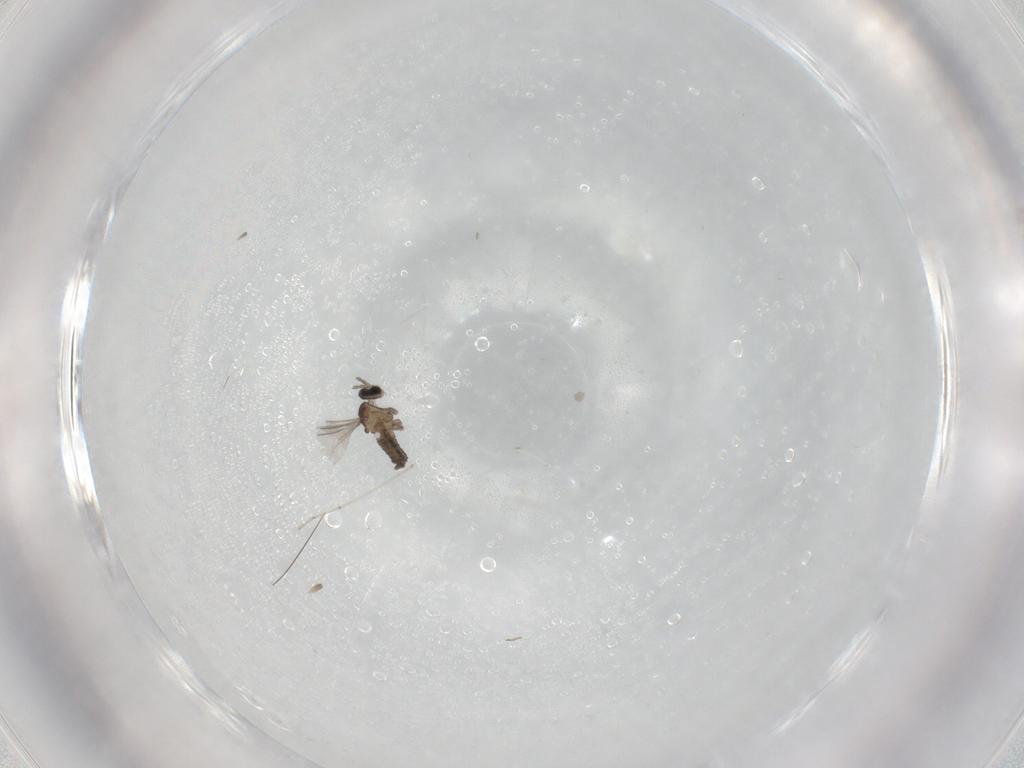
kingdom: Animalia
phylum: Arthropoda
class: Insecta
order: Diptera
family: Cecidomyiidae
